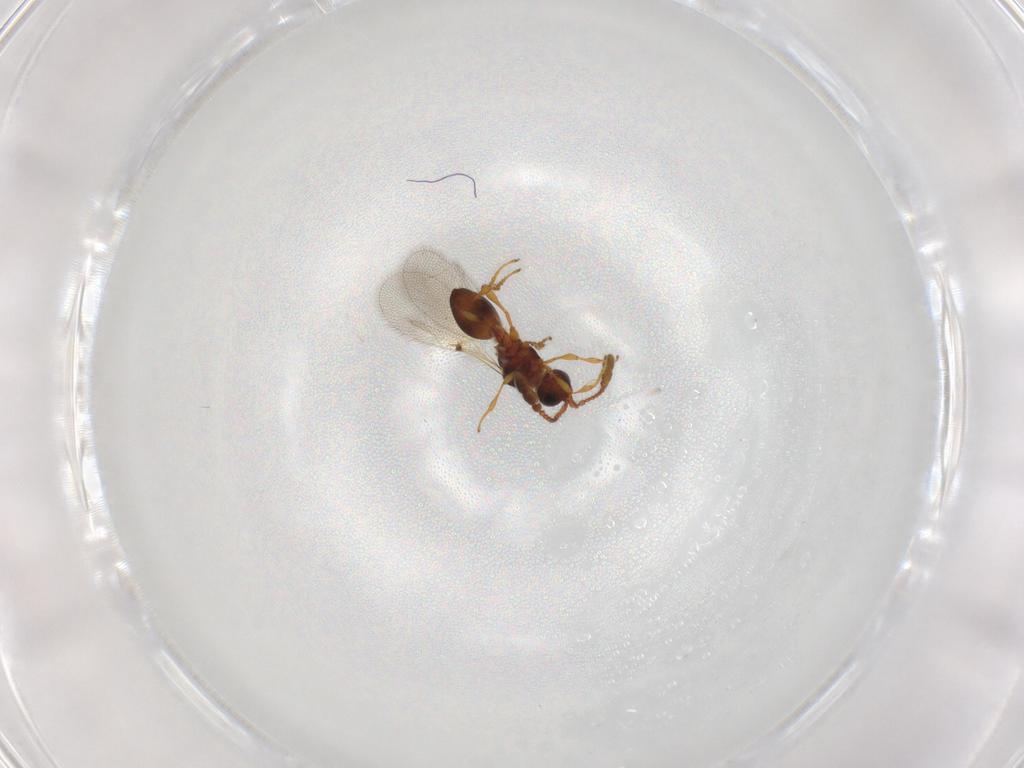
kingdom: Animalia
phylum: Arthropoda
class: Insecta
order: Hymenoptera
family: Diapriidae
